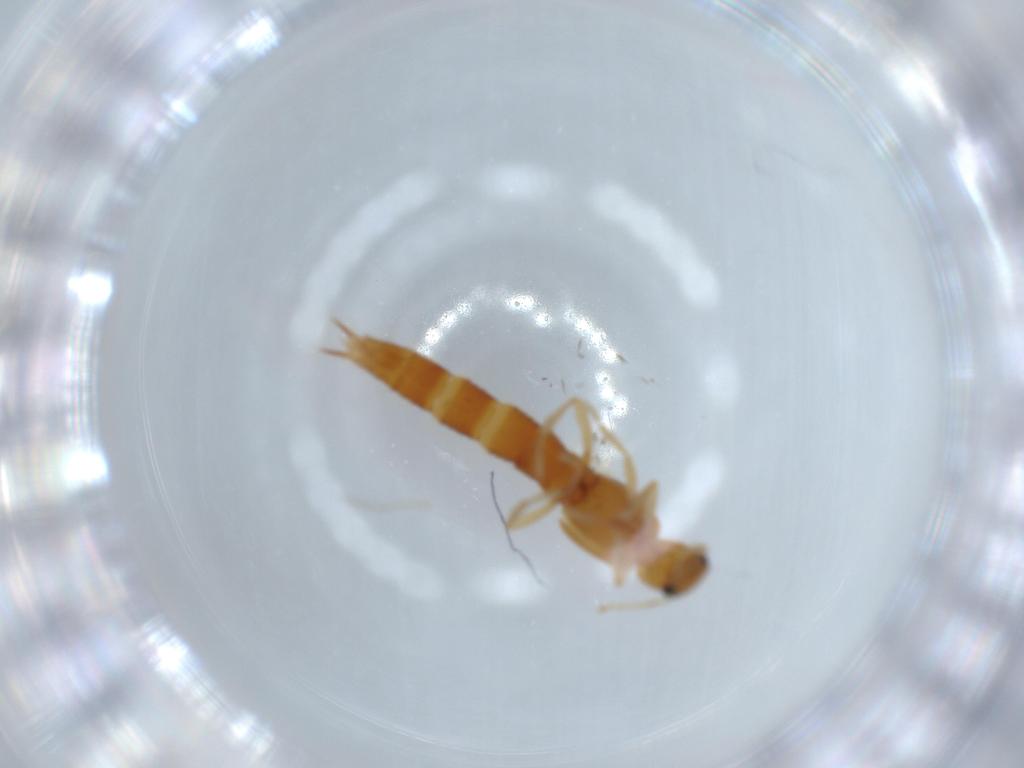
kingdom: Animalia
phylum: Arthropoda
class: Insecta
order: Coleoptera
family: Staphylinidae
